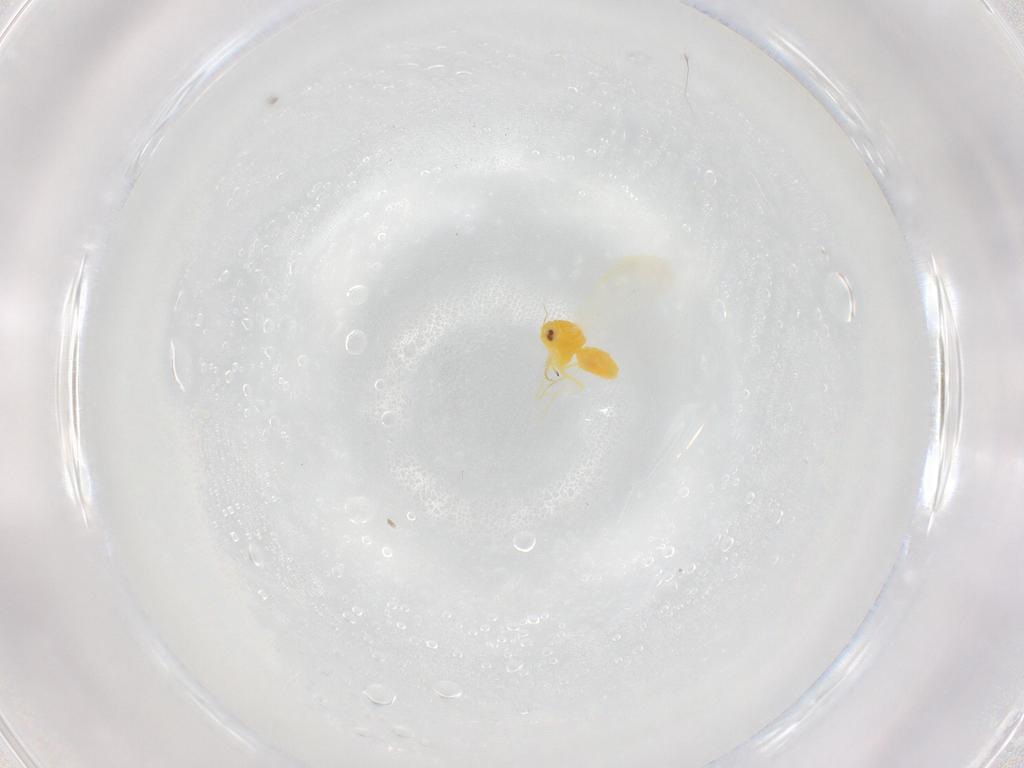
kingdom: Animalia
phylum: Arthropoda
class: Insecta
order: Hemiptera
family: Cicadellidae
